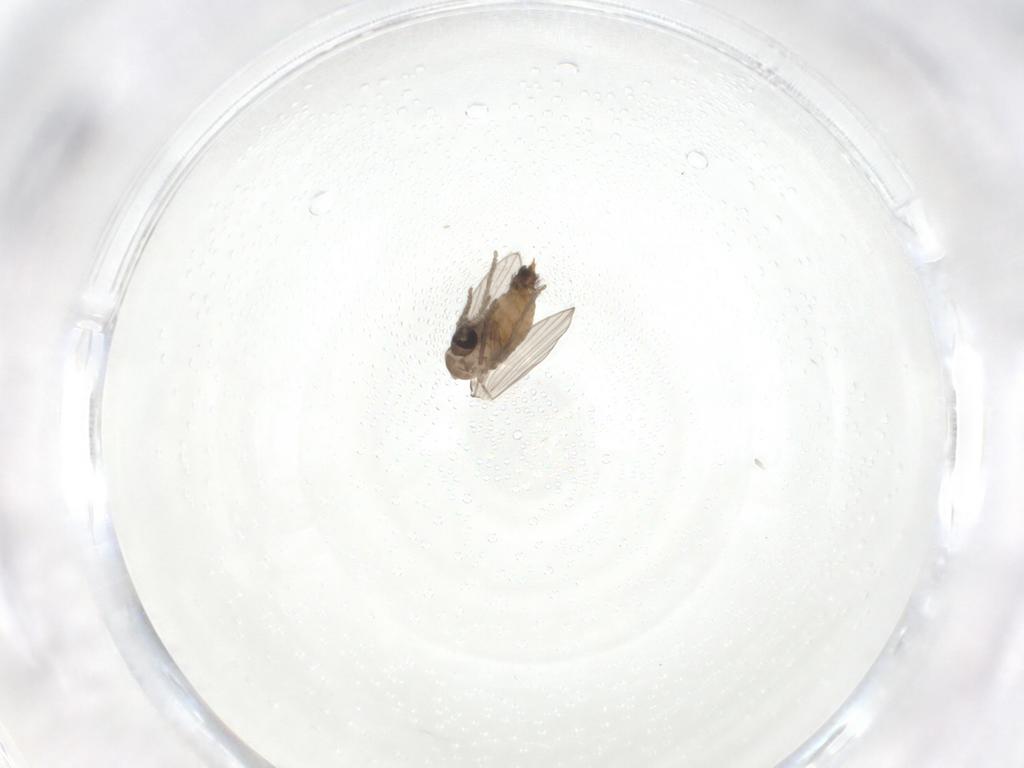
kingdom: Animalia
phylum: Arthropoda
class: Insecta
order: Diptera
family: Psychodidae
